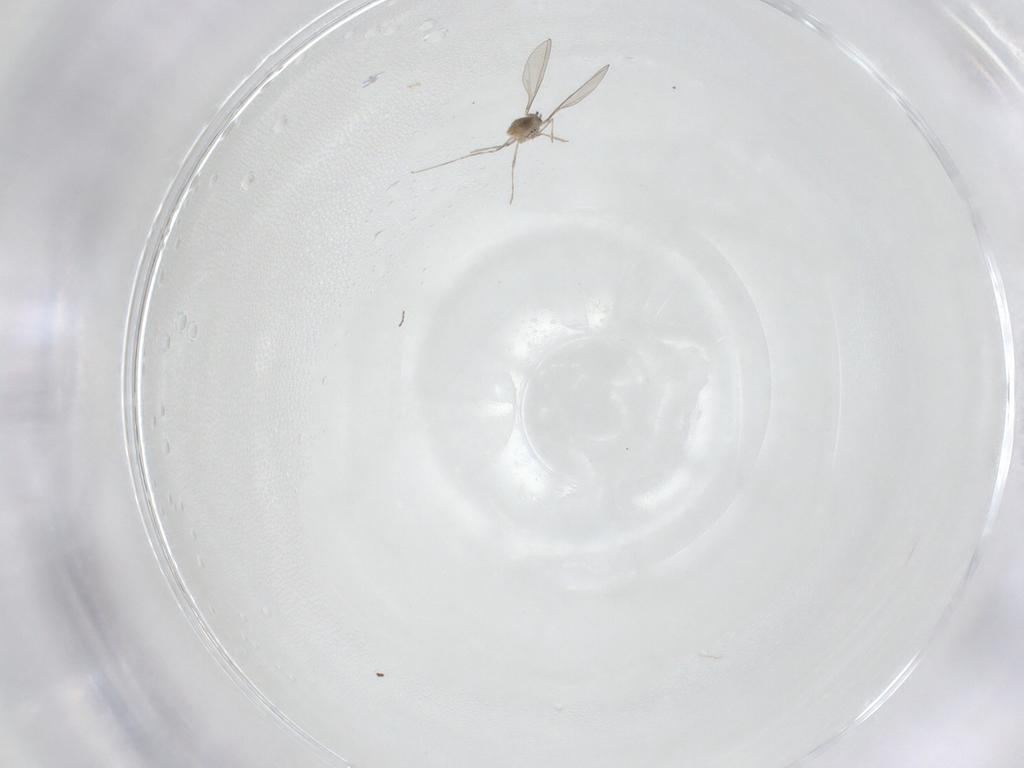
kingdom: Animalia
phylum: Arthropoda
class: Insecta
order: Diptera
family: Cecidomyiidae
